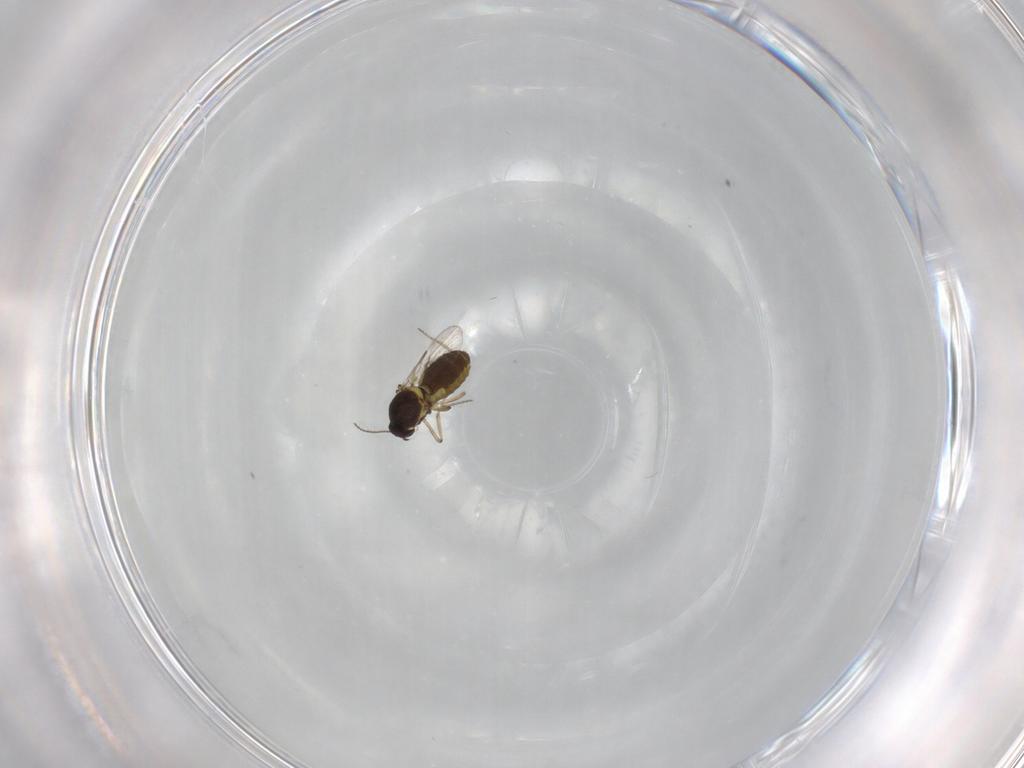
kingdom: Animalia
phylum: Arthropoda
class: Insecta
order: Diptera
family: Ceratopogonidae
